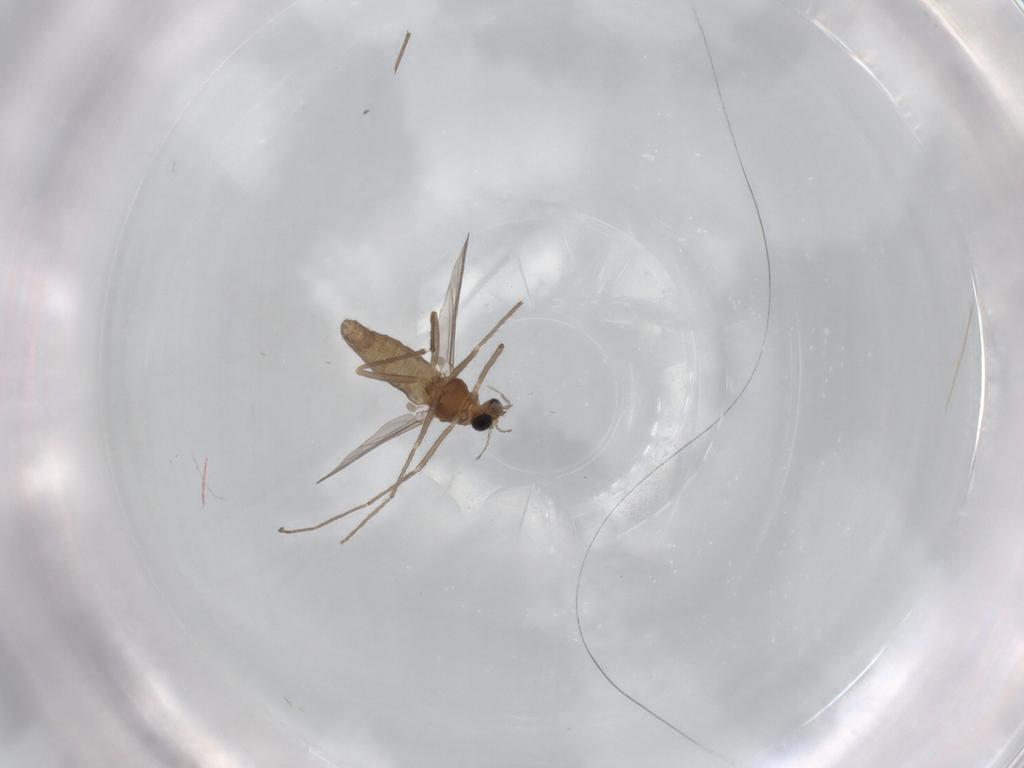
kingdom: Animalia
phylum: Arthropoda
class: Insecta
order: Diptera
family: Chironomidae
